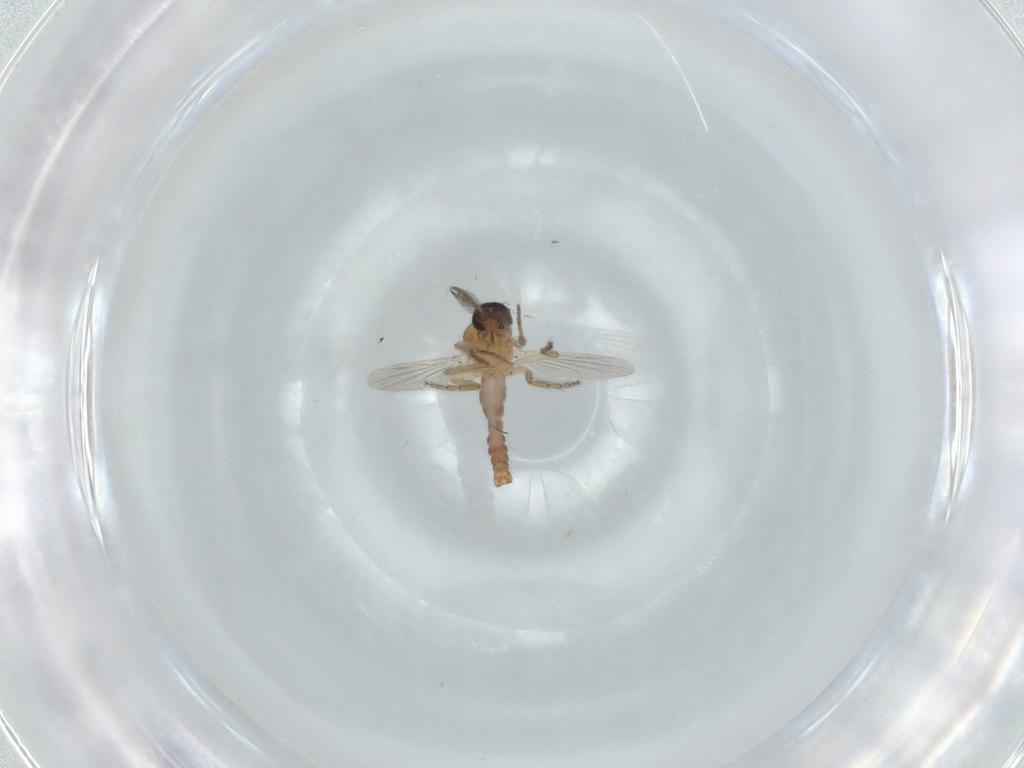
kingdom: Animalia
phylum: Arthropoda
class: Insecta
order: Diptera
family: Ceratopogonidae
